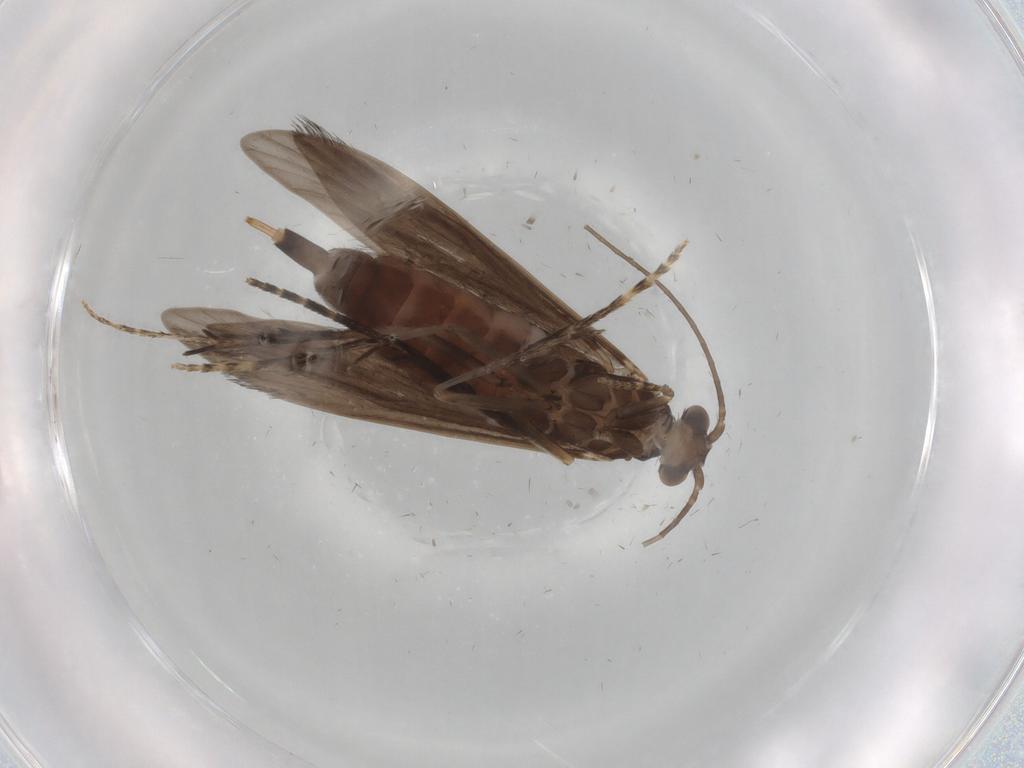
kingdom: Animalia
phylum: Arthropoda
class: Insecta
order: Trichoptera
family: Xiphocentronidae
